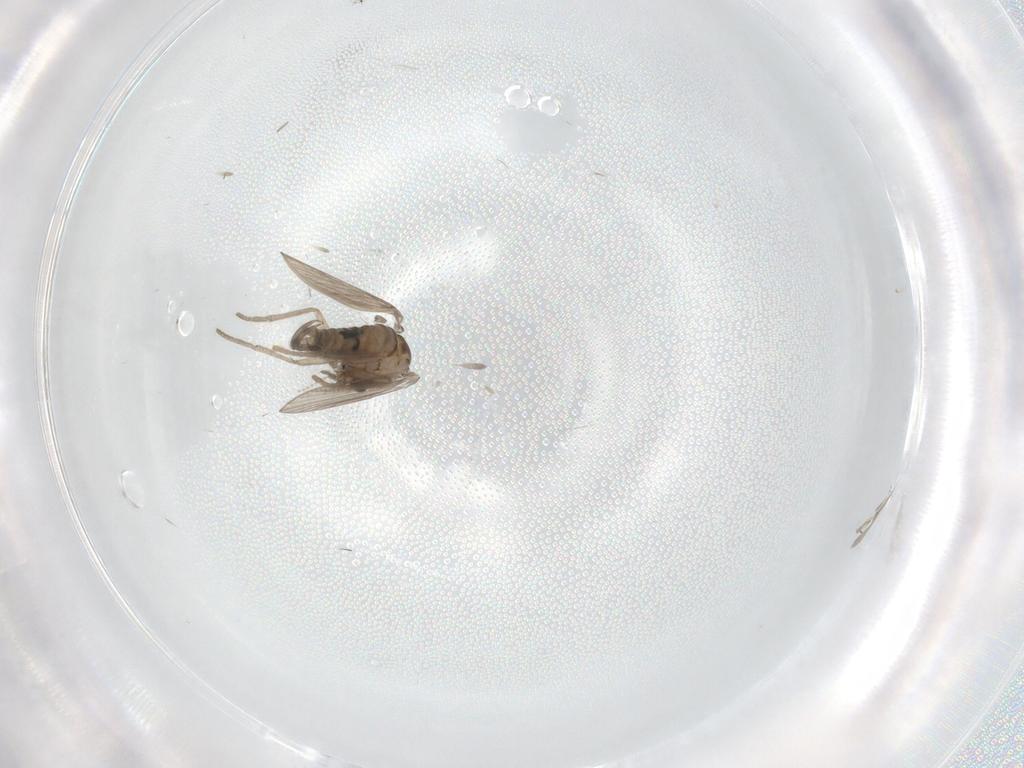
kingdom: Animalia
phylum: Arthropoda
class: Insecta
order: Diptera
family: Psychodidae
